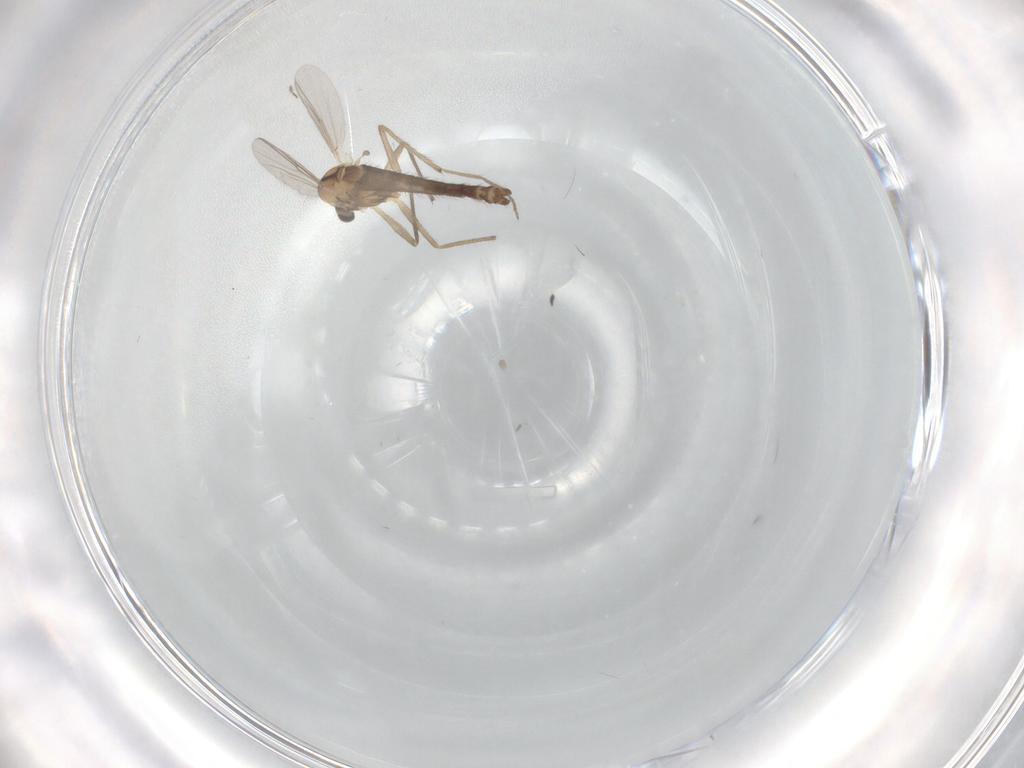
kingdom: Animalia
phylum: Arthropoda
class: Insecta
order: Diptera
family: Chironomidae
